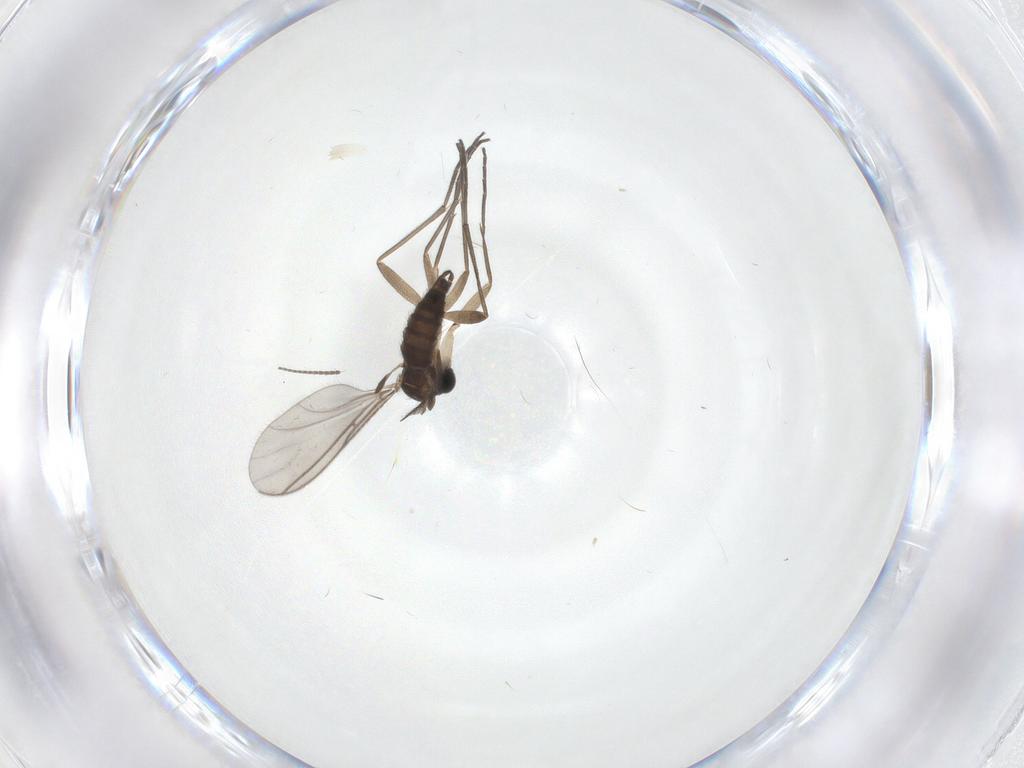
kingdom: Animalia
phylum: Arthropoda
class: Insecta
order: Diptera
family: Sciaridae
